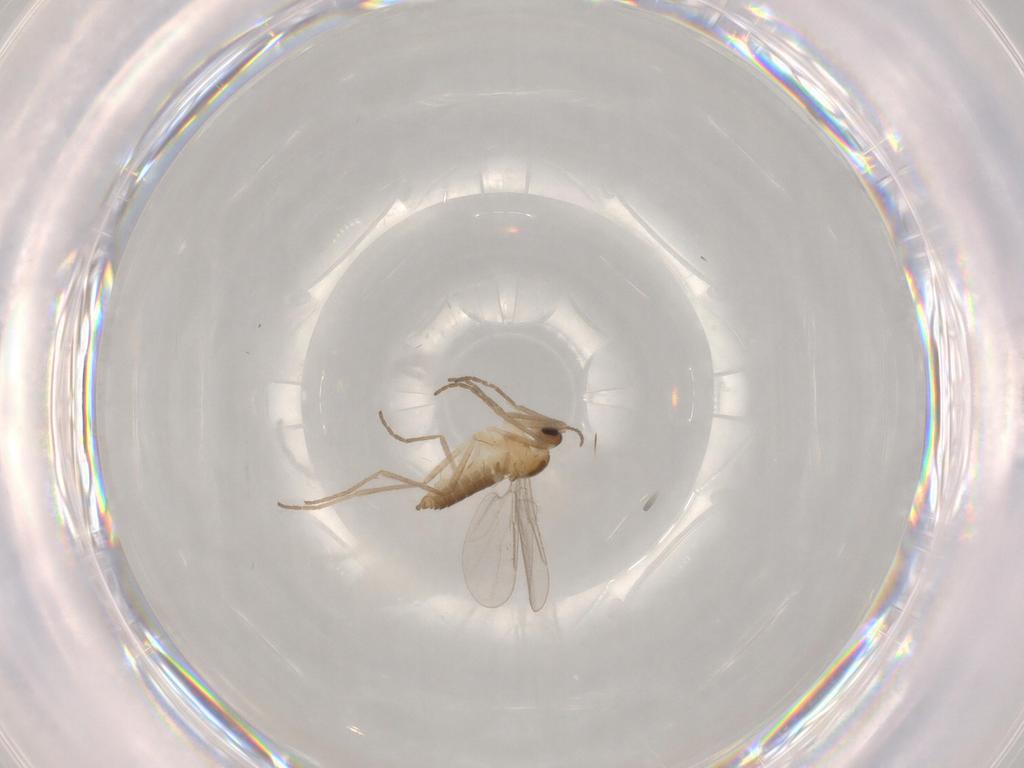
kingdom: Animalia
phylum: Arthropoda
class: Insecta
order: Diptera
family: Cecidomyiidae
